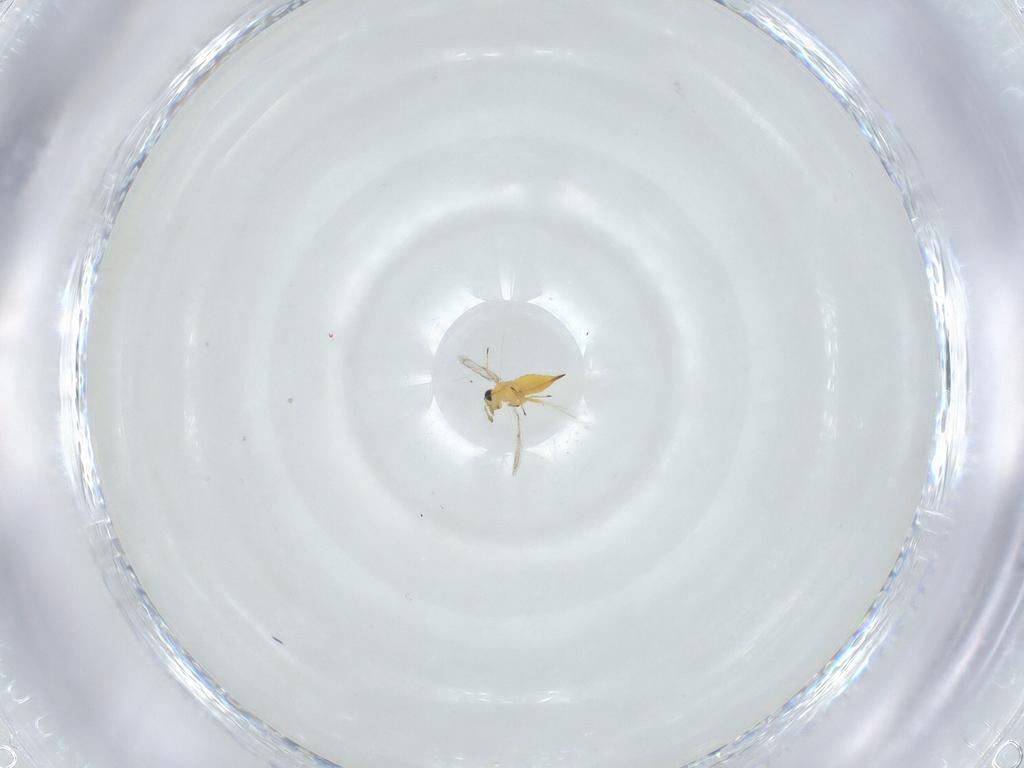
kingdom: Animalia
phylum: Arthropoda
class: Insecta
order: Hymenoptera
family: Trichogrammatidae
